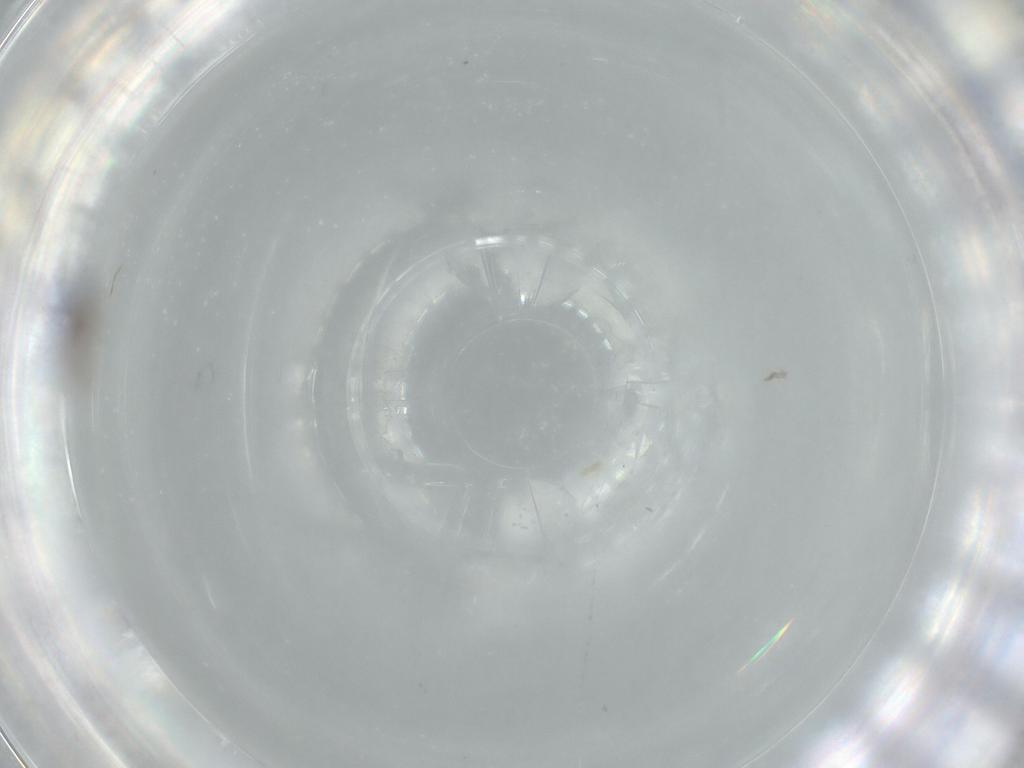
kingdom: Animalia
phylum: Arthropoda
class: Insecta
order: Diptera
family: Cecidomyiidae
